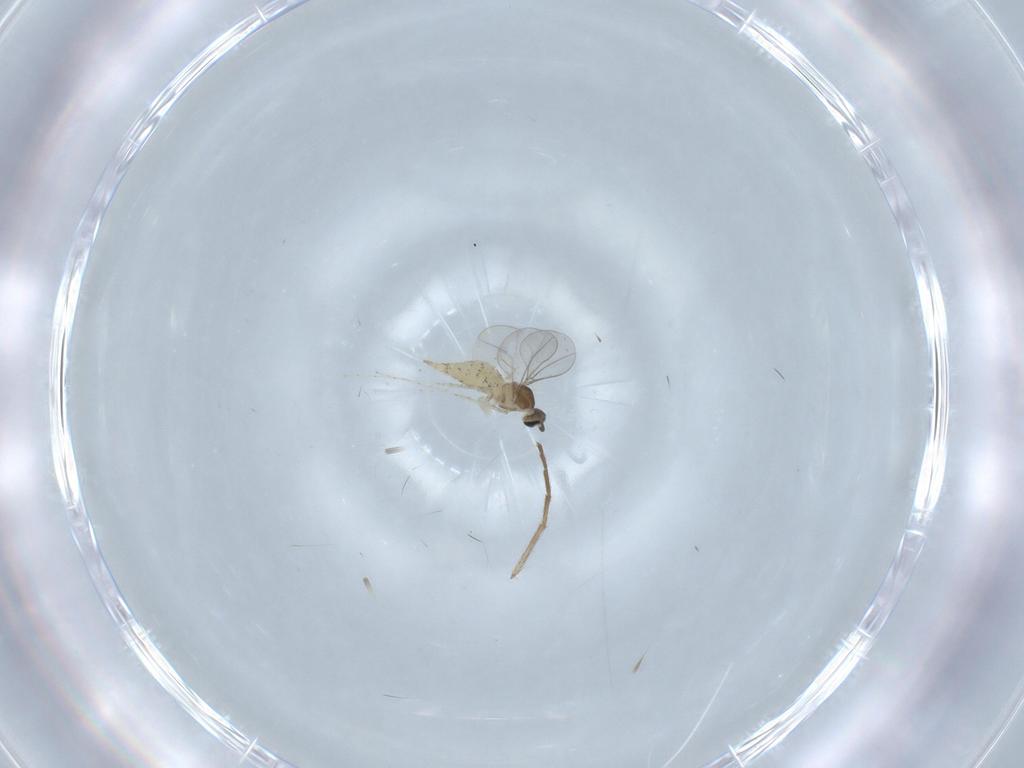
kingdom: Animalia
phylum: Arthropoda
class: Insecta
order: Diptera
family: Cecidomyiidae
